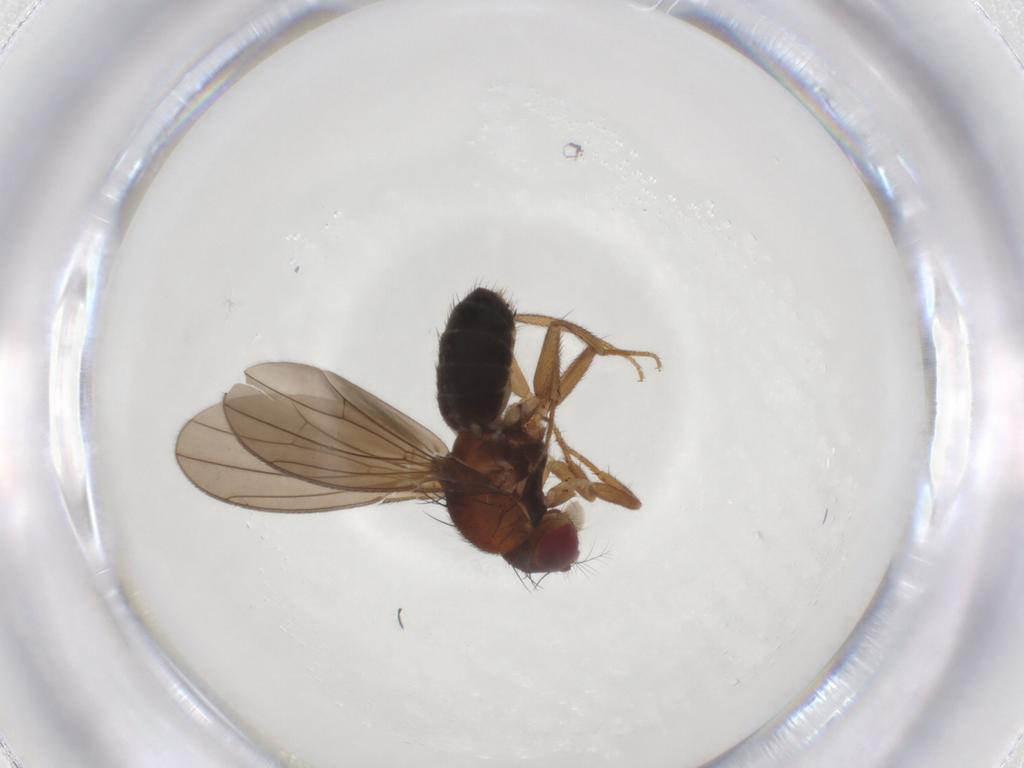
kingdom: Animalia
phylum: Arthropoda
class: Insecta
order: Diptera
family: Drosophilidae
